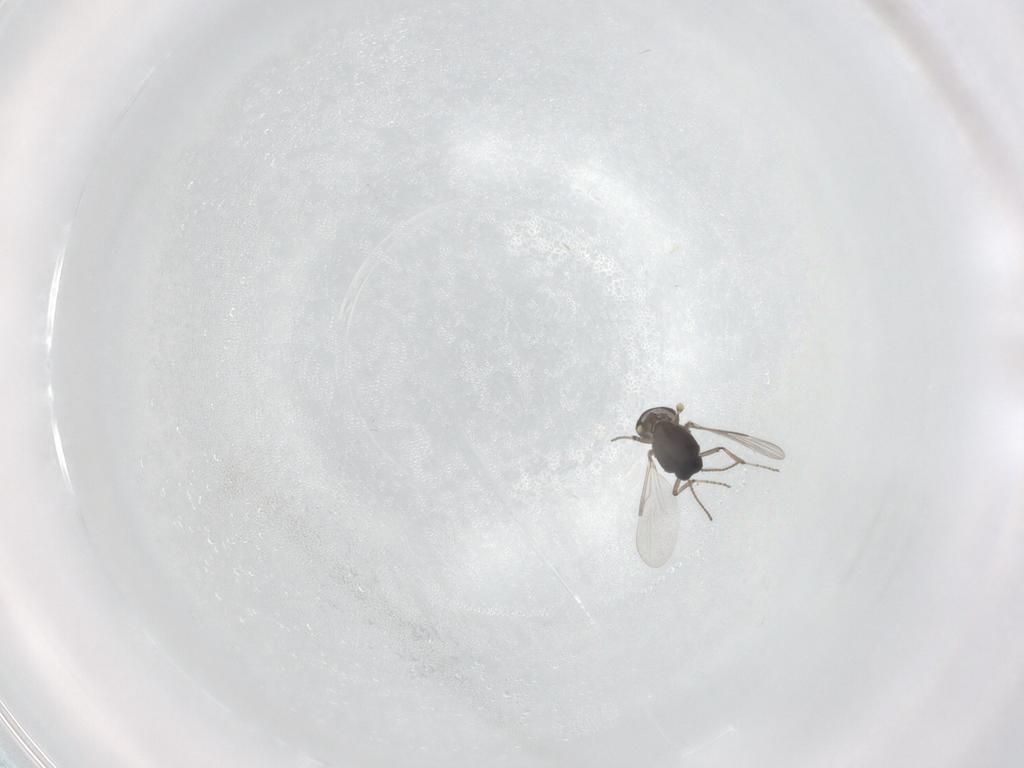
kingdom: Animalia
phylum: Arthropoda
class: Insecta
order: Diptera
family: Ceratopogonidae
